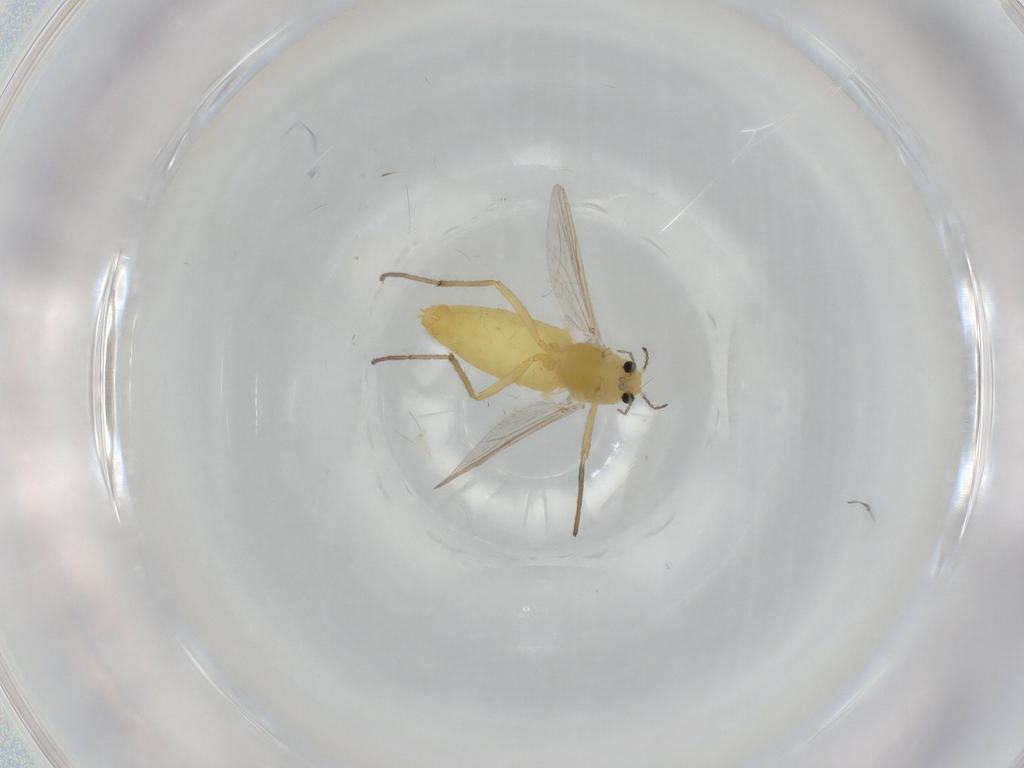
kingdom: Animalia
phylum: Arthropoda
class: Insecta
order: Diptera
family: Chironomidae
